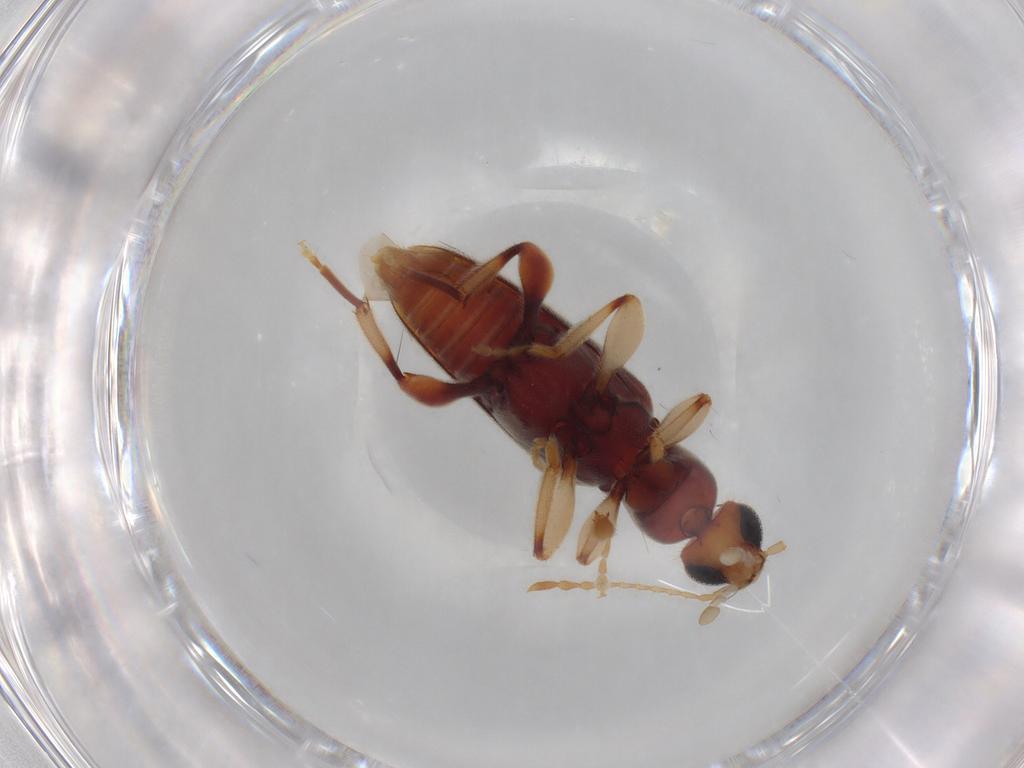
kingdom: Animalia
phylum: Arthropoda
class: Insecta
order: Coleoptera
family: Anthicidae
